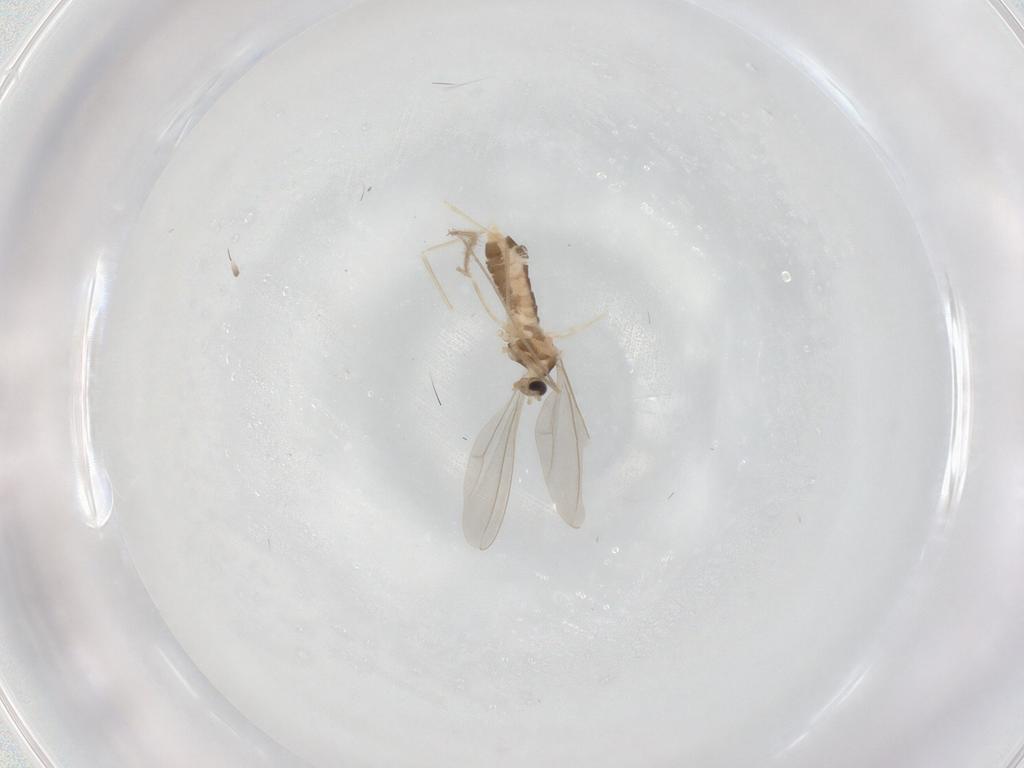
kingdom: Animalia
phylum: Arthropoda
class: Insecta
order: Diptera
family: Cecidomyiidae
